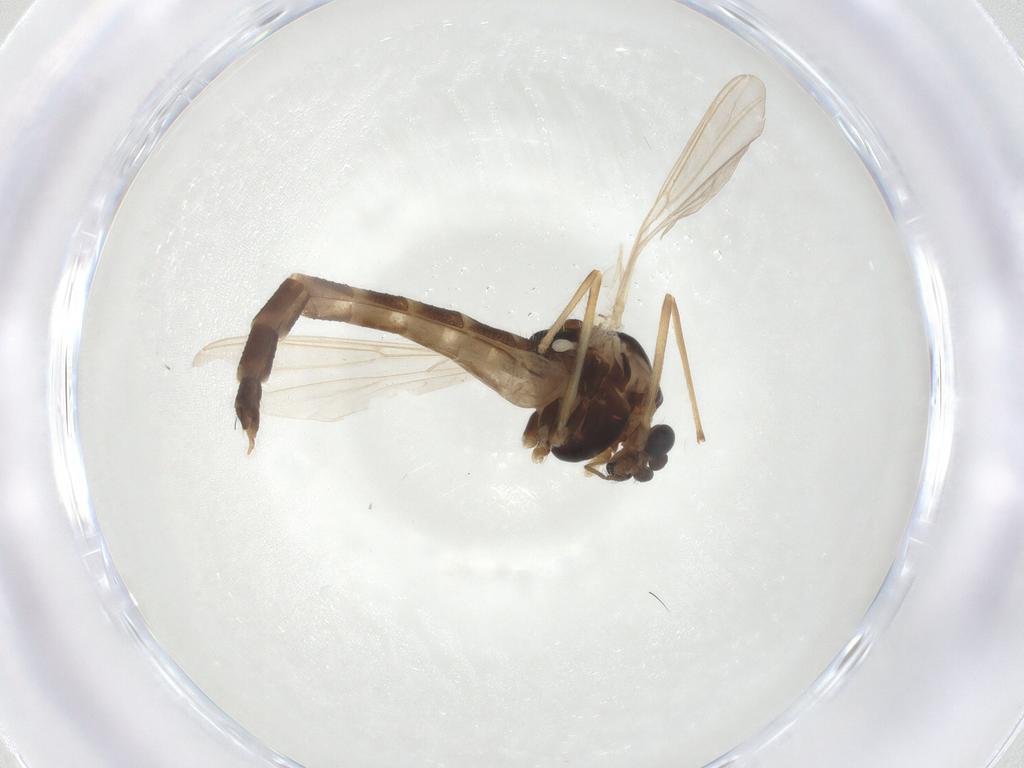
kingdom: Animalia
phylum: Arthropoda
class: Insecta
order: Diptera
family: Chironomidae
